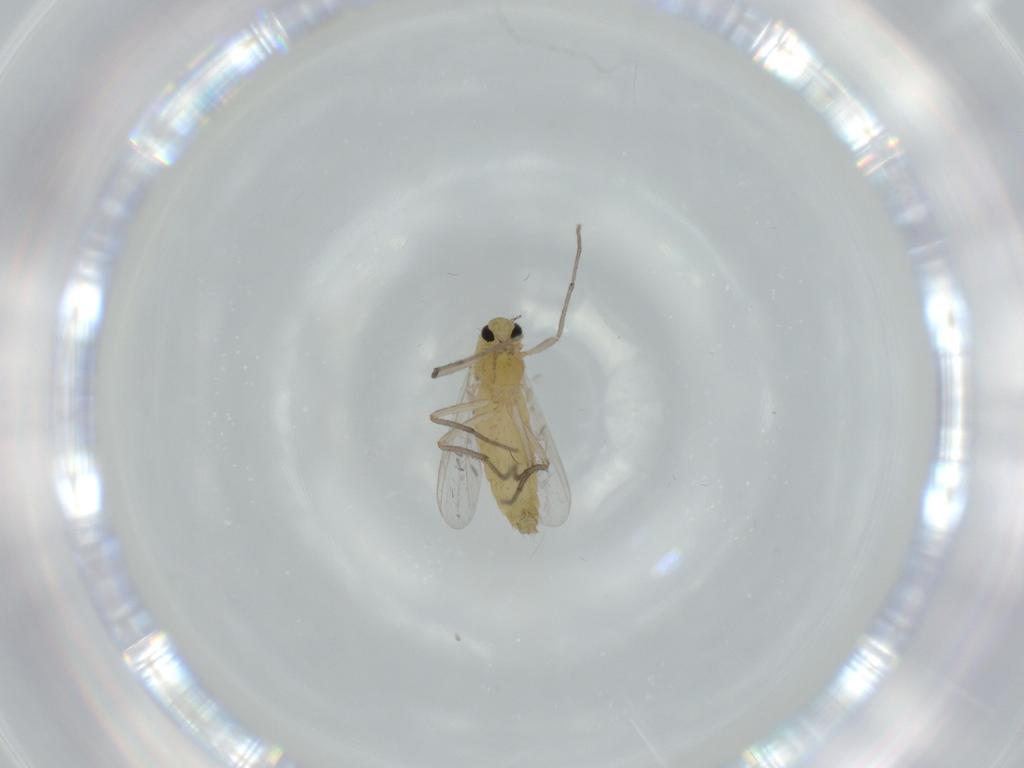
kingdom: Animalia
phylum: Arthropoda
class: Insecta
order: Diptera
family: Chironomidae
